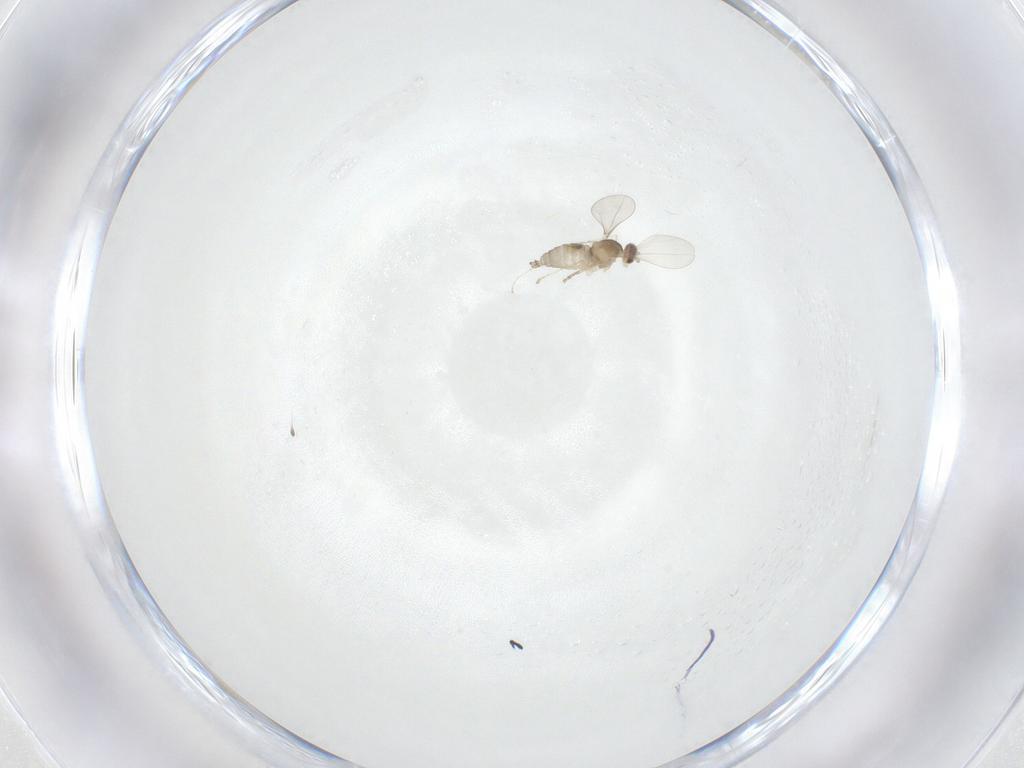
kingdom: Animalia
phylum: Arthropoda
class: Insecta
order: Diptera
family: Cecidomyiidae
